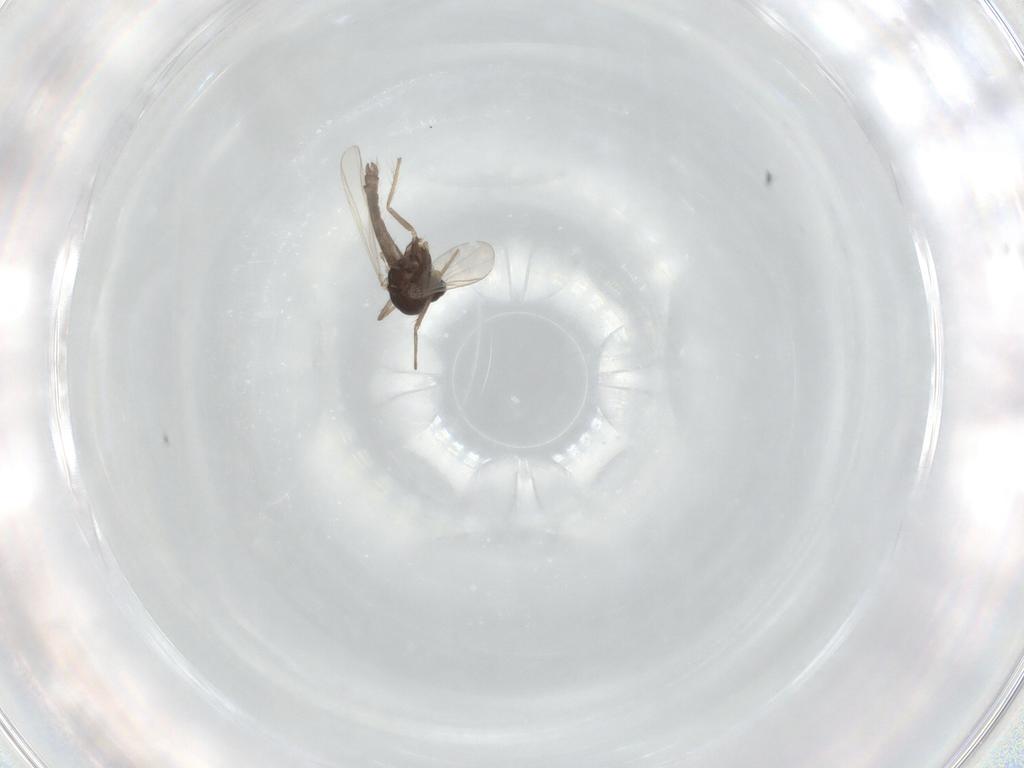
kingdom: Animalia
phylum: Arthropoda
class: Insecta
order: Diptera
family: Chironomidae
